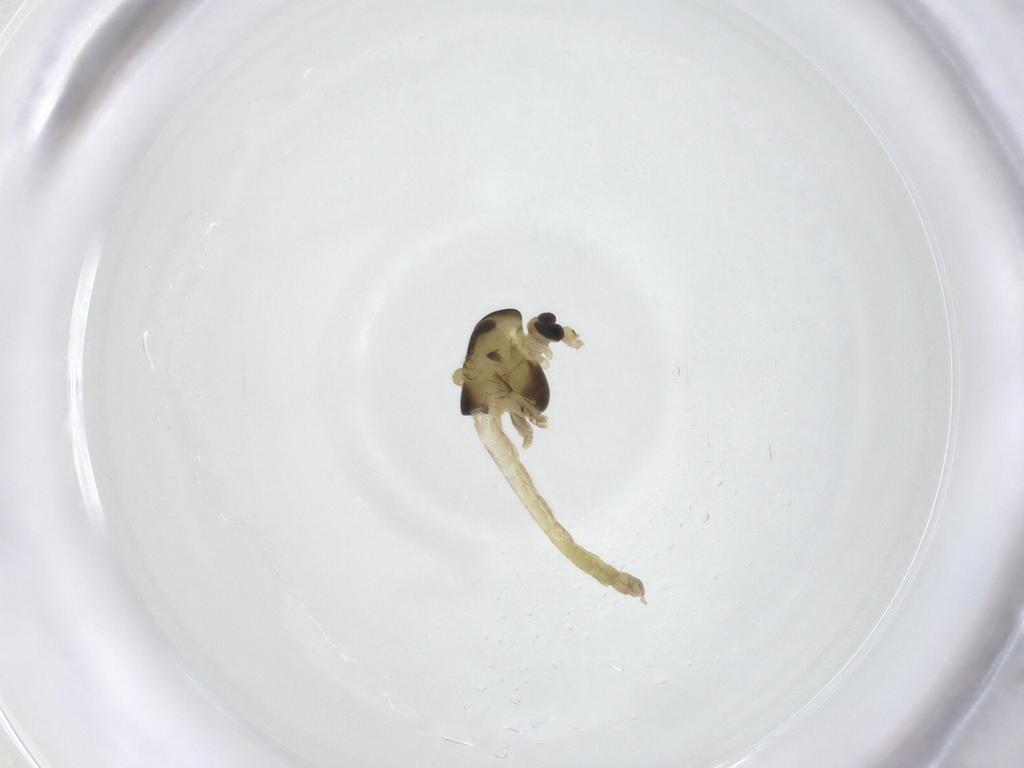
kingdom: Animalia
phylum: Arthropoda
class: Insecta
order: Diptera
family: Chironomidae
